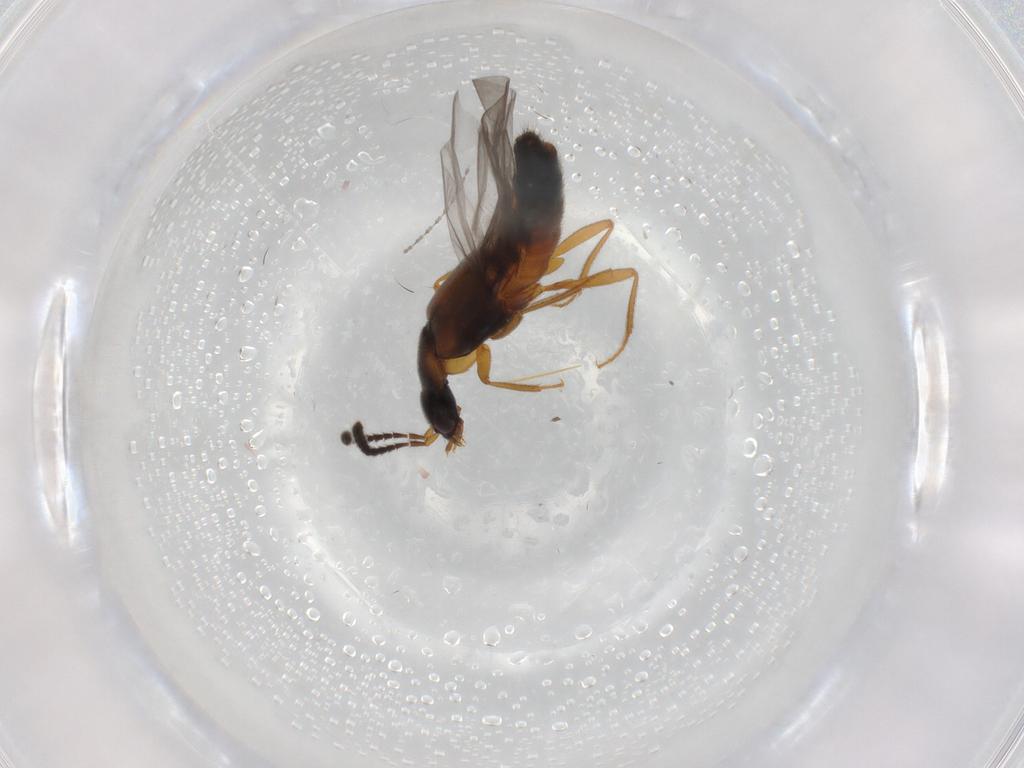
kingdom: Animalia
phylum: Arthropoda
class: Insecta
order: Coleoptera
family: Staphylinidae
